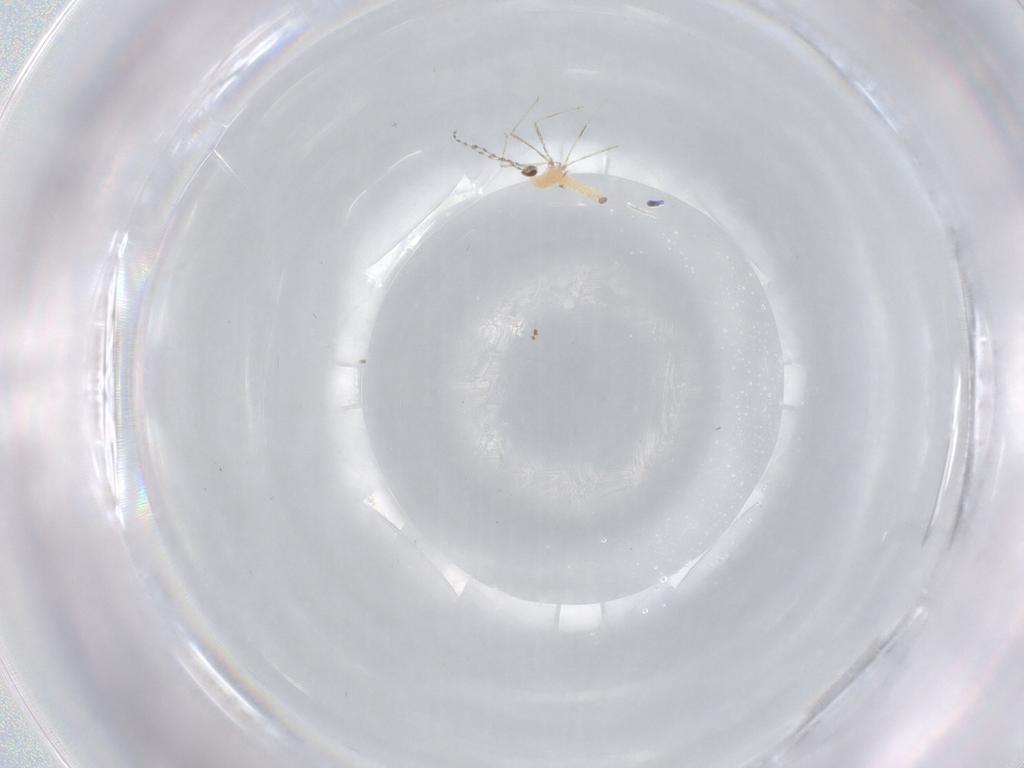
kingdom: Animalia
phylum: Arthropoda
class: Insecta
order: Diptera
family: Cecidomyiidae
